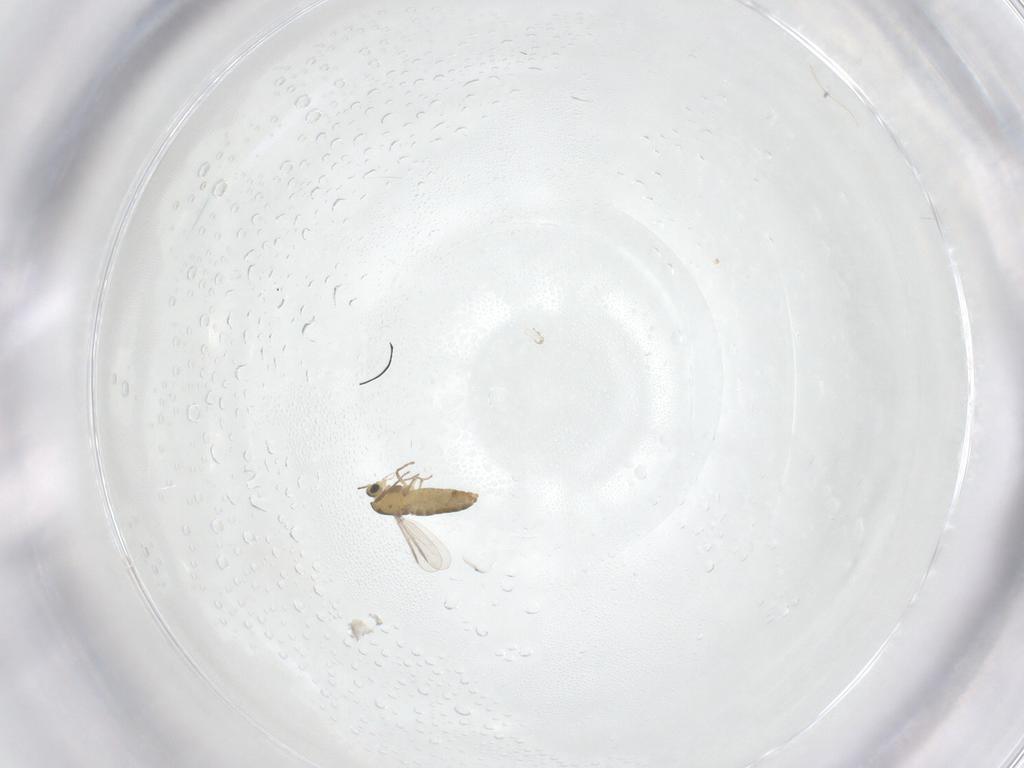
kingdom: Animalia
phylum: Arthropoda
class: Insecta
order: Diptera
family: Chironomidae
